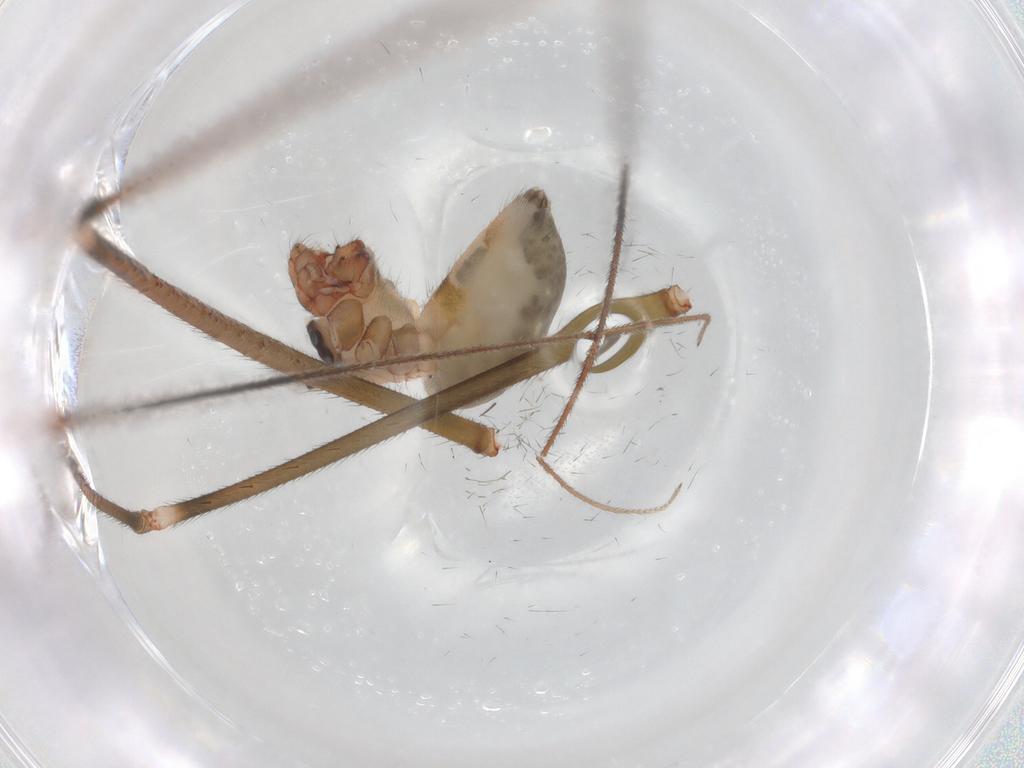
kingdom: Animalia
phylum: Arthropoda
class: Arachnida
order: Araneae
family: Pholcidae
